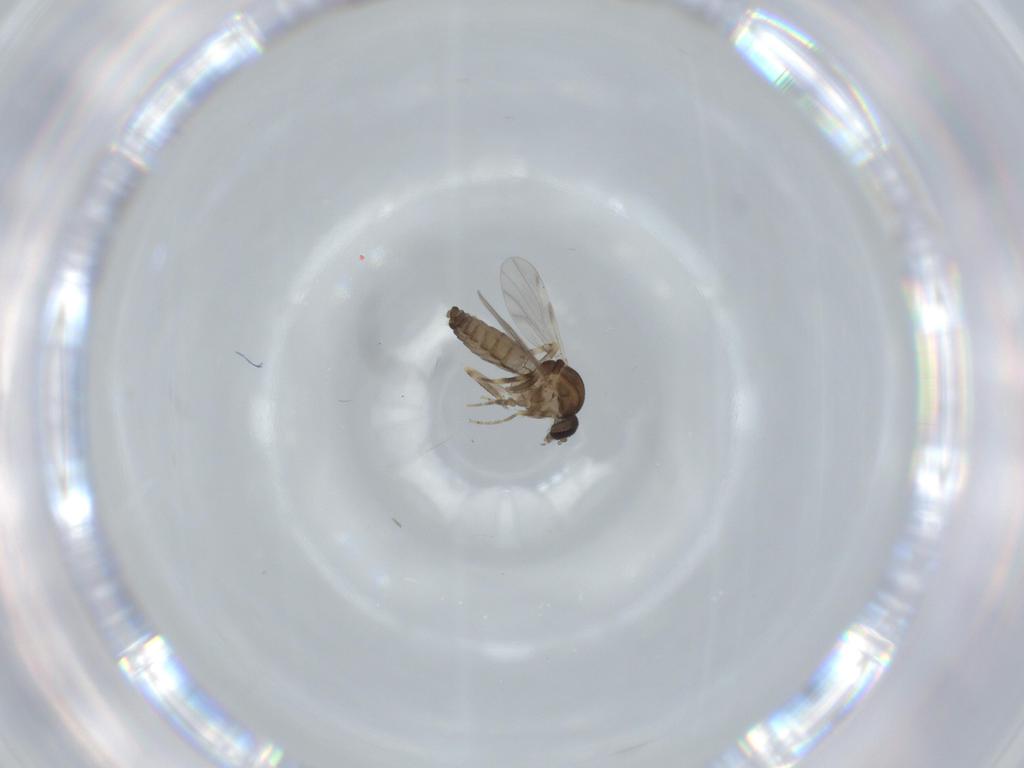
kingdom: Animalia
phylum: Arthropoda
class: Insecta
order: Diptera
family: Ceratopogonidae
